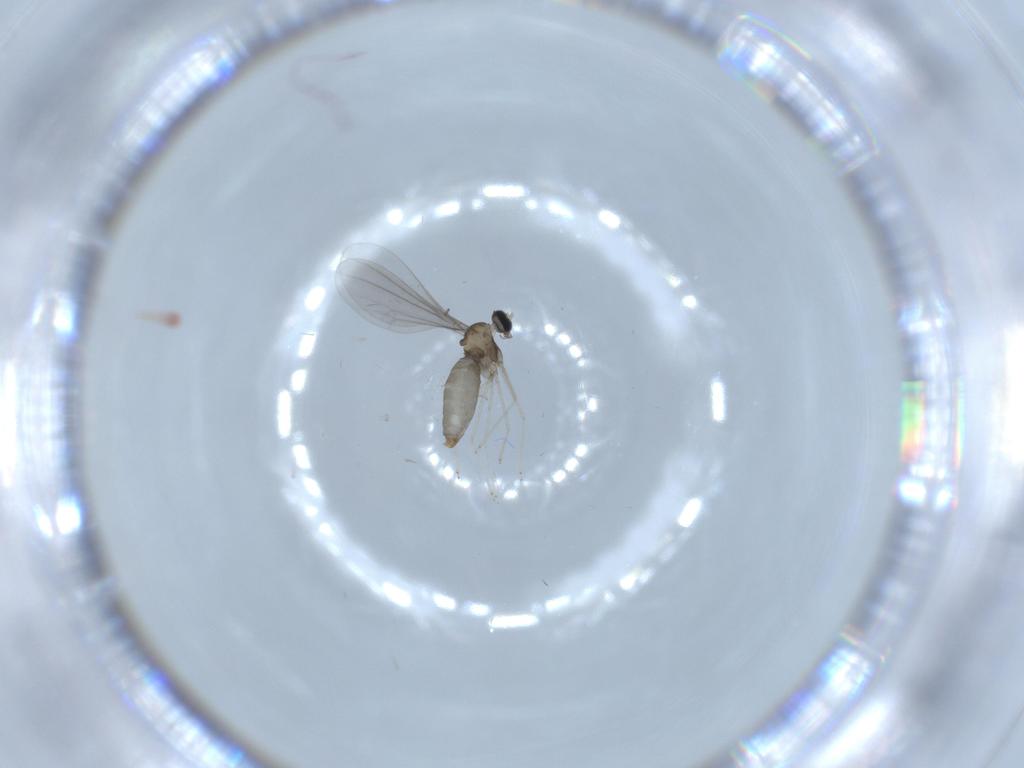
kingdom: Animalia
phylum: Arthropoda
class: Insecta
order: Diptera
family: Cecidomyiidae
